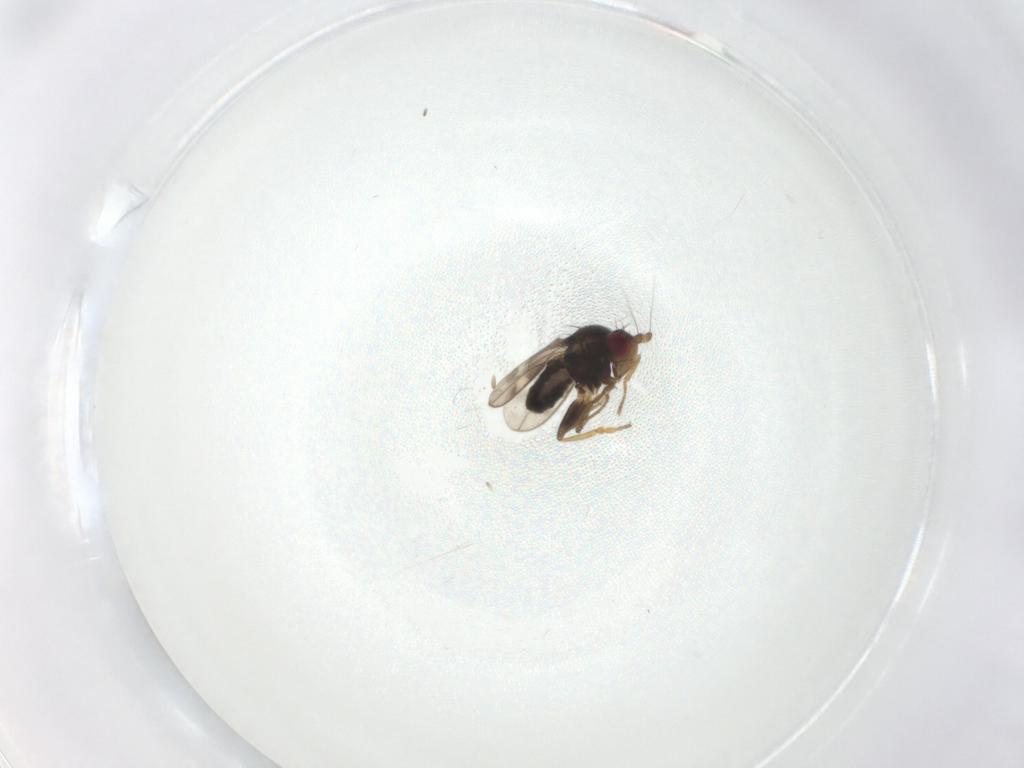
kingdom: Animalia
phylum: Arthropoda
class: Insecta
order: Diptera
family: Sphaeroceridae
